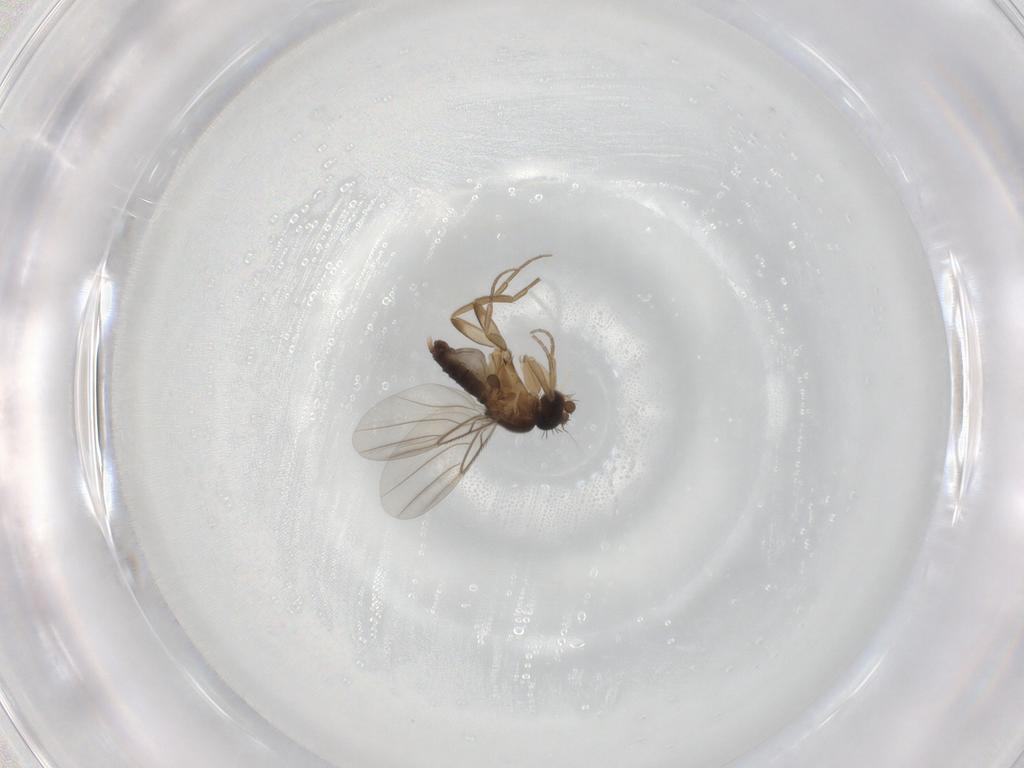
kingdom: Animalia
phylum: Arthropoda
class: Insecta
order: Diptera
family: Phoridae
